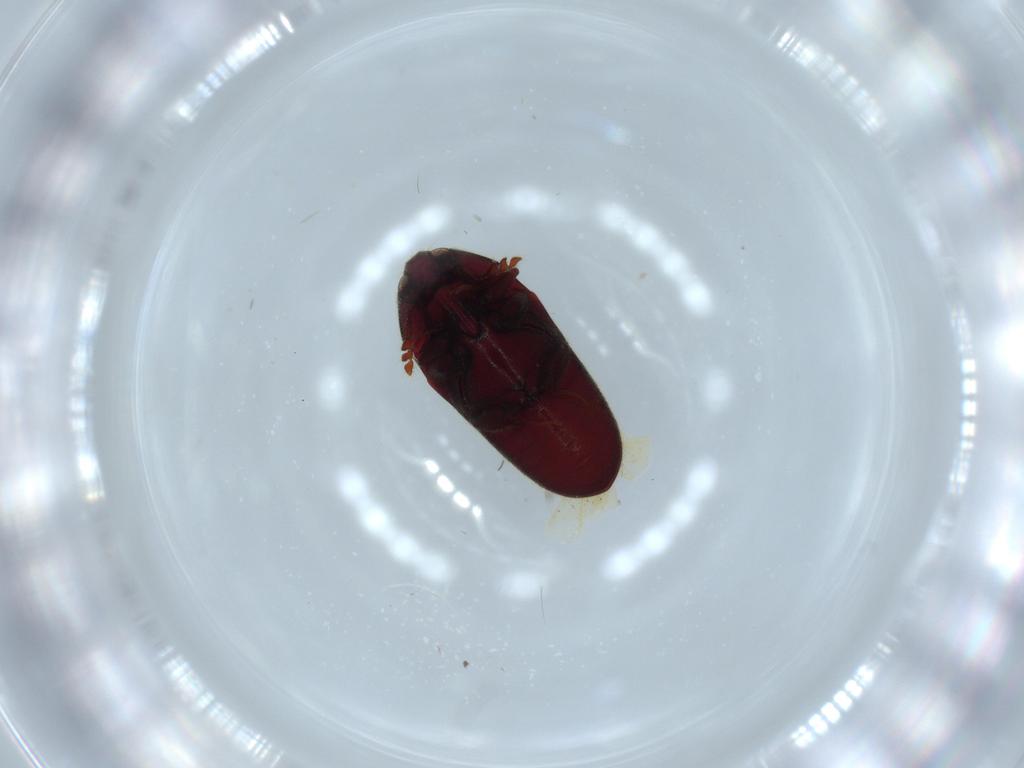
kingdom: Animalia
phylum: Arthropoda
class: Insecta
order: Coleoptera
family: Throscidae
